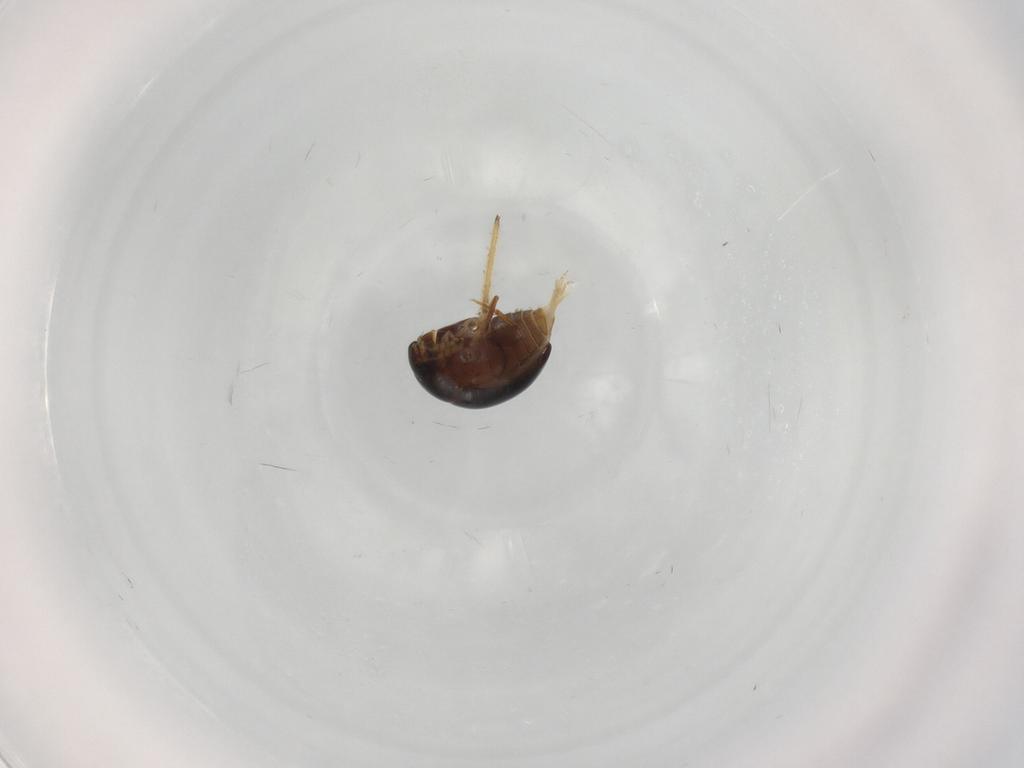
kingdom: Animalia
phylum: Arthropoda
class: Insecta
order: Coleoptera
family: Phalacridae
